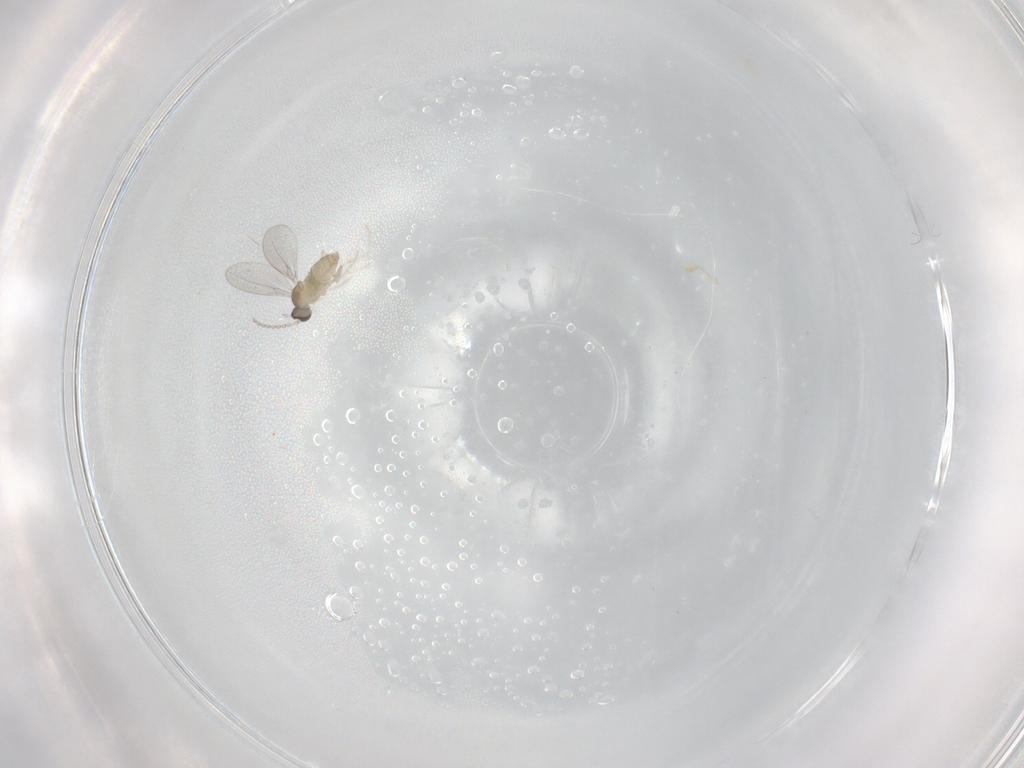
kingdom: Animalia
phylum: Arthropoda
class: Insecta
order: Diptera
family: Cecidomyiidae
